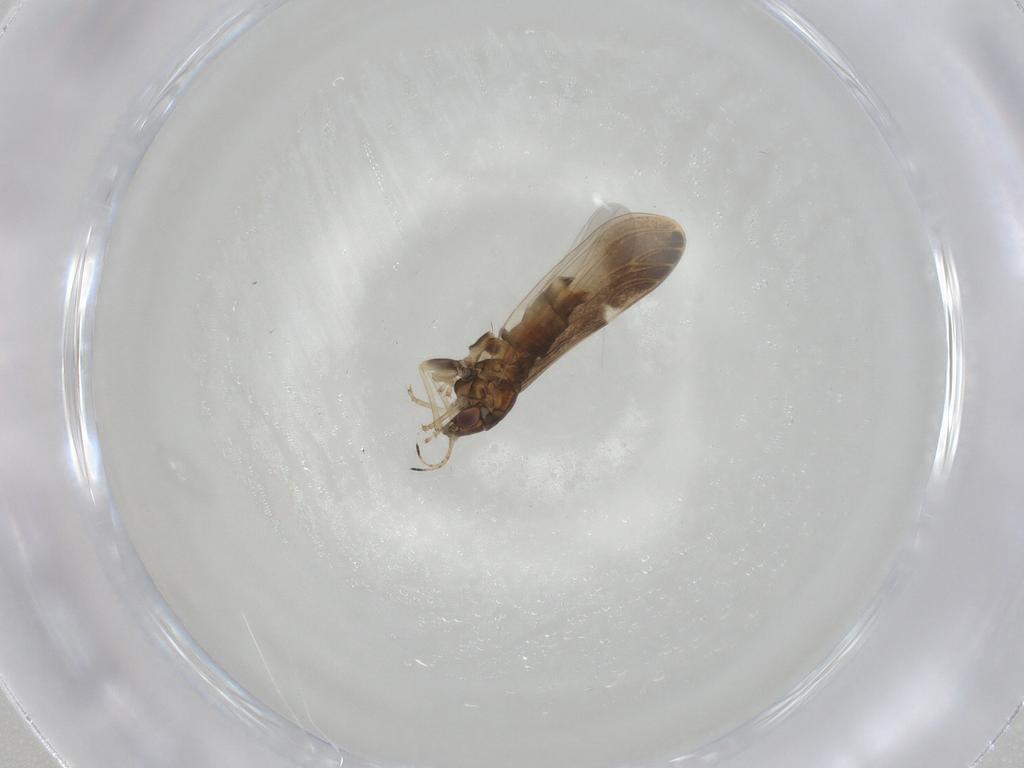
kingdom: Animalia
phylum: Arthropoda
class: Insecta
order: Hemiptera
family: Aphalaridae
